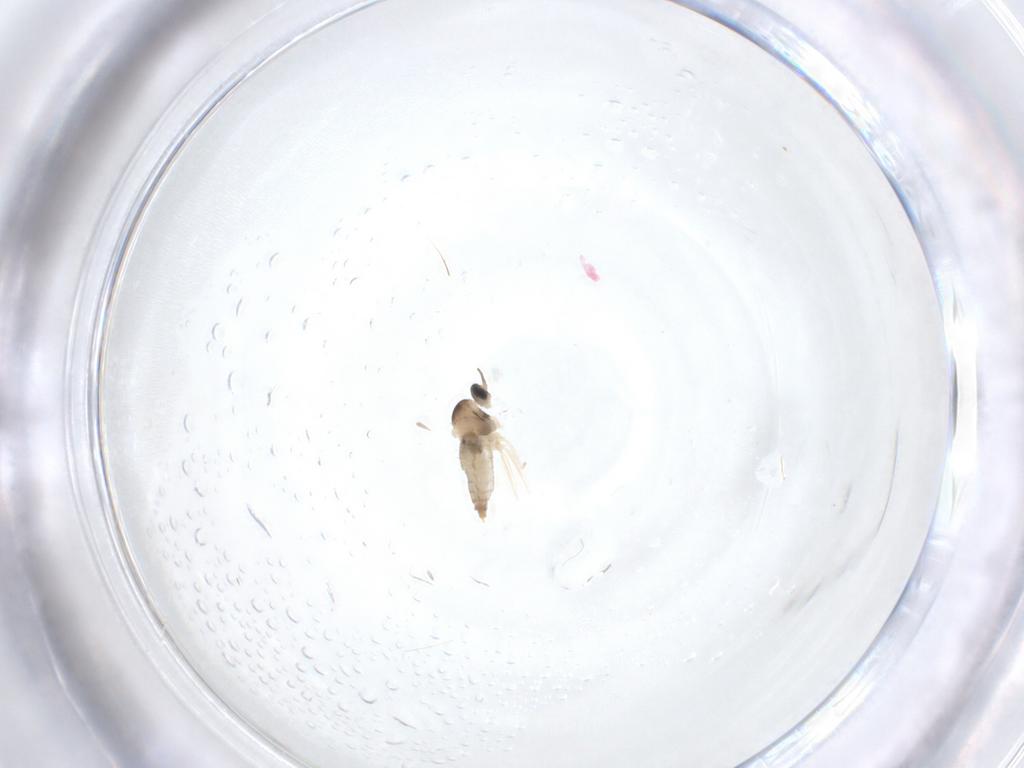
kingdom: Animalia
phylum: Arthropoda
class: Insecta
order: Diptera
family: Sciaridae
